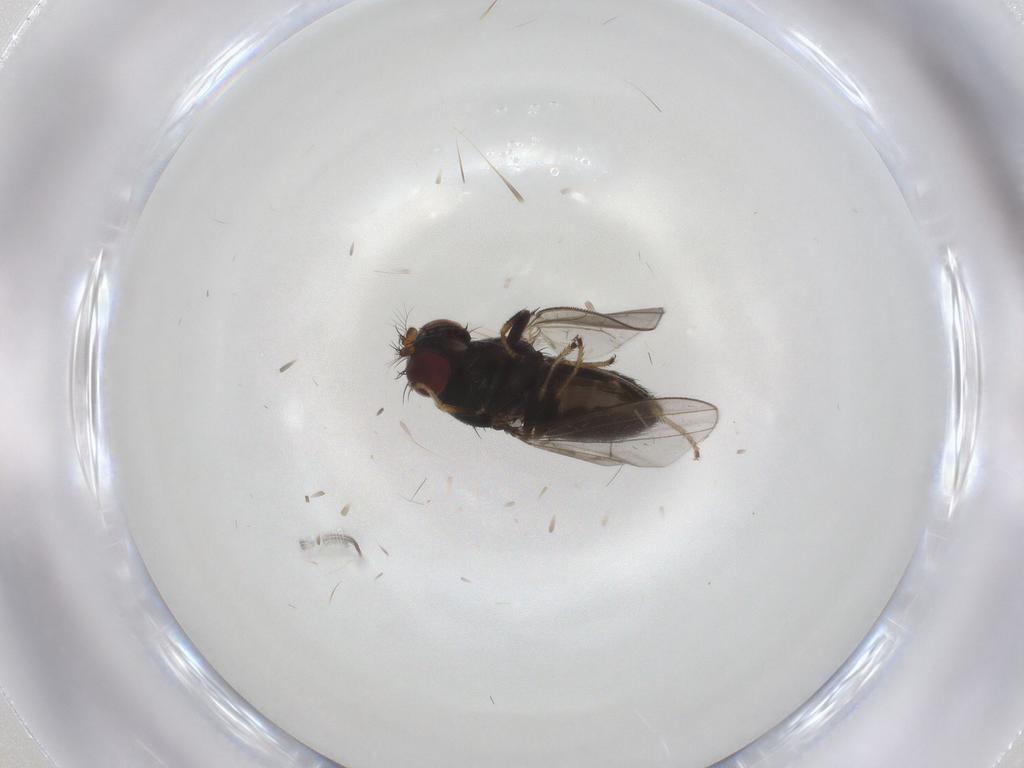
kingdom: Animalia
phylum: Arthropoda
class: Insecta
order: Diptera
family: Ephydridae
